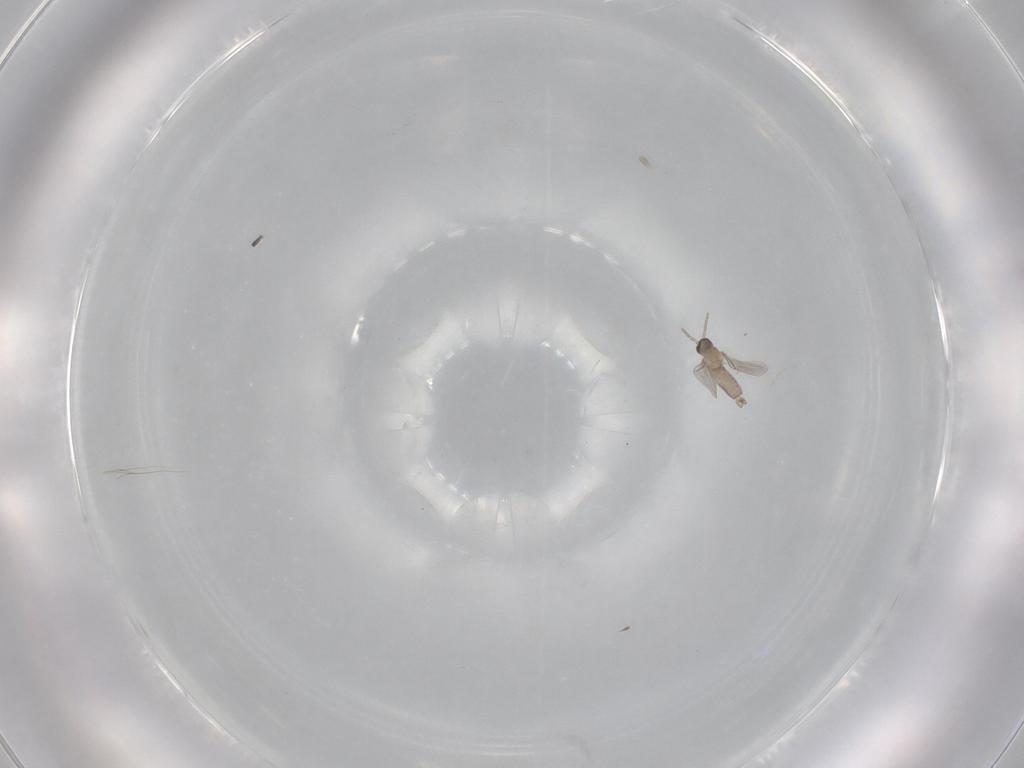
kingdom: Animalia
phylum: Arthropoda
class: Insecta
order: Diptera
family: Cecidomyiidae
